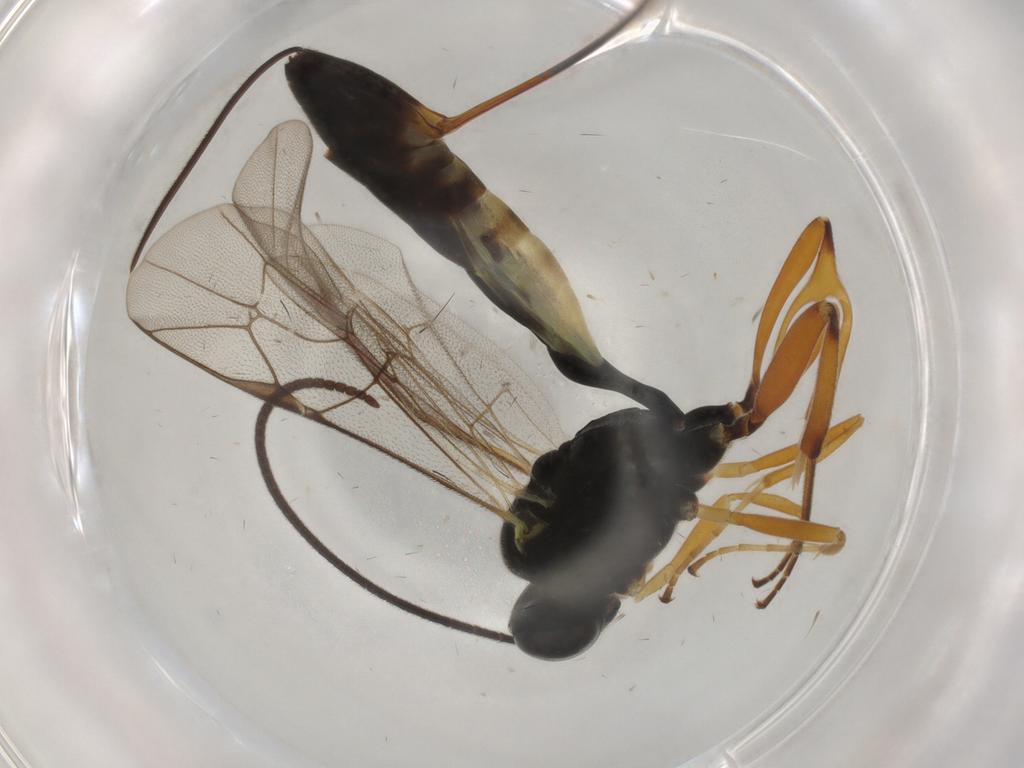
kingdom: Animalia
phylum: Arthropoda
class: Insecta
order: Hymenoptera
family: Ichneumonidae
